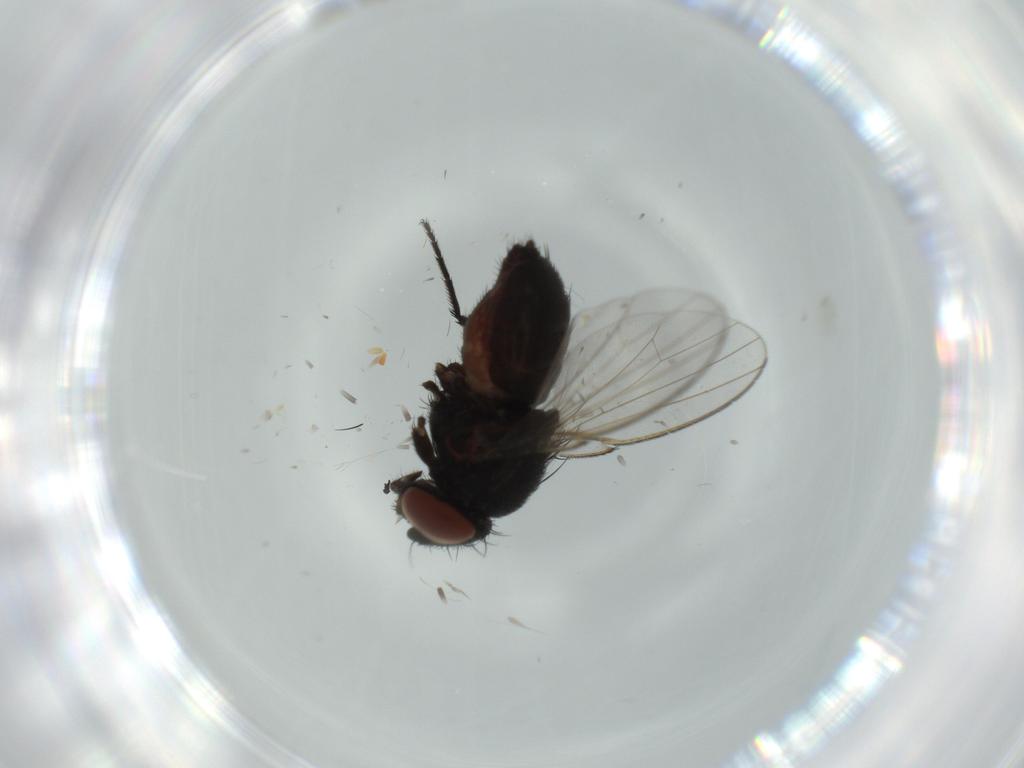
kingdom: Animalia
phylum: Arthropoda
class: Insecta
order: Diptera
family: Milichiidae
